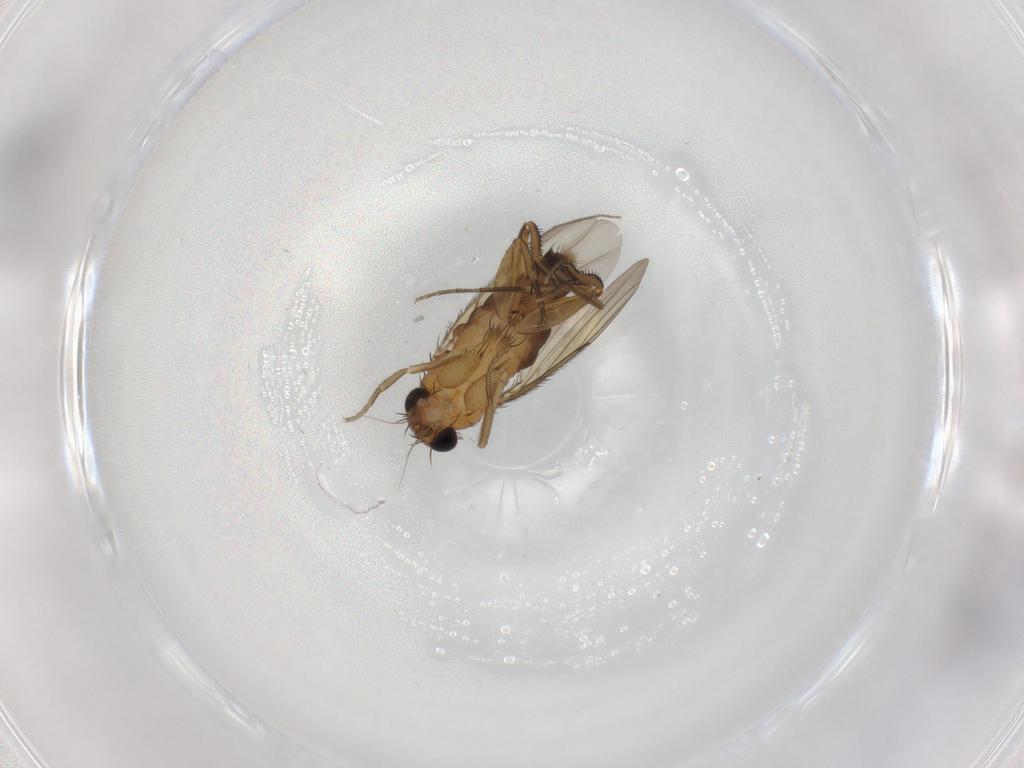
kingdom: Animalia
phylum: Arthropoda
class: Insecta
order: Diptera
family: Phoridae
